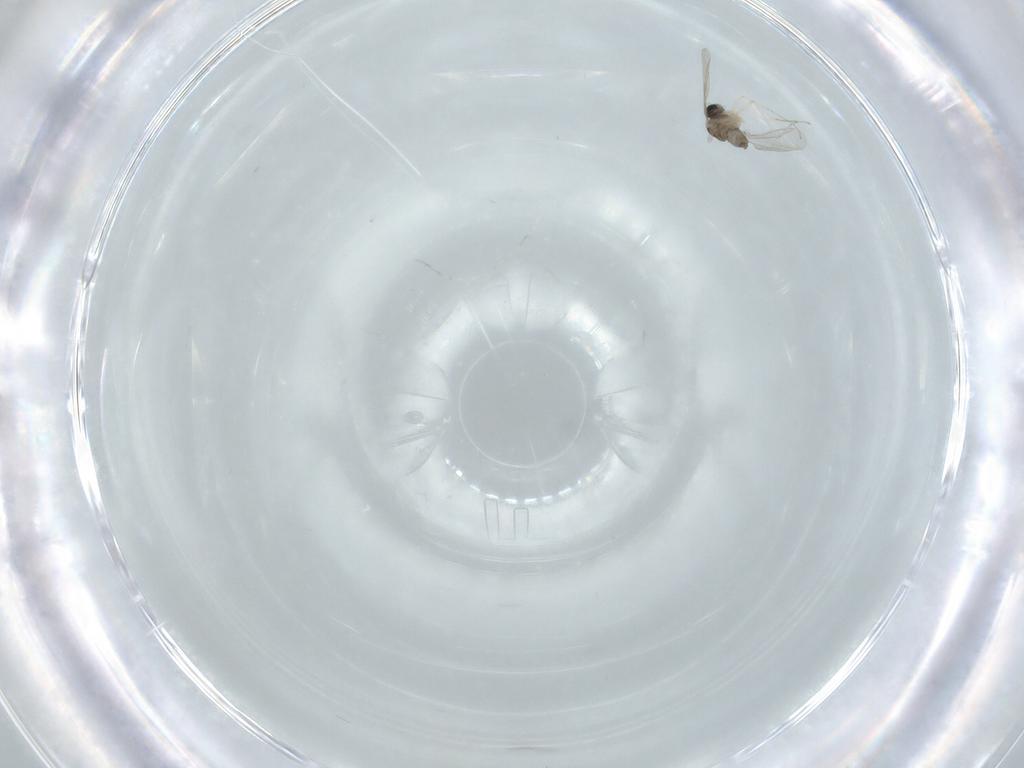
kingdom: Animalia
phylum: Arthropoda
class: Insecta
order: Diptera
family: Cecidomyiidae
